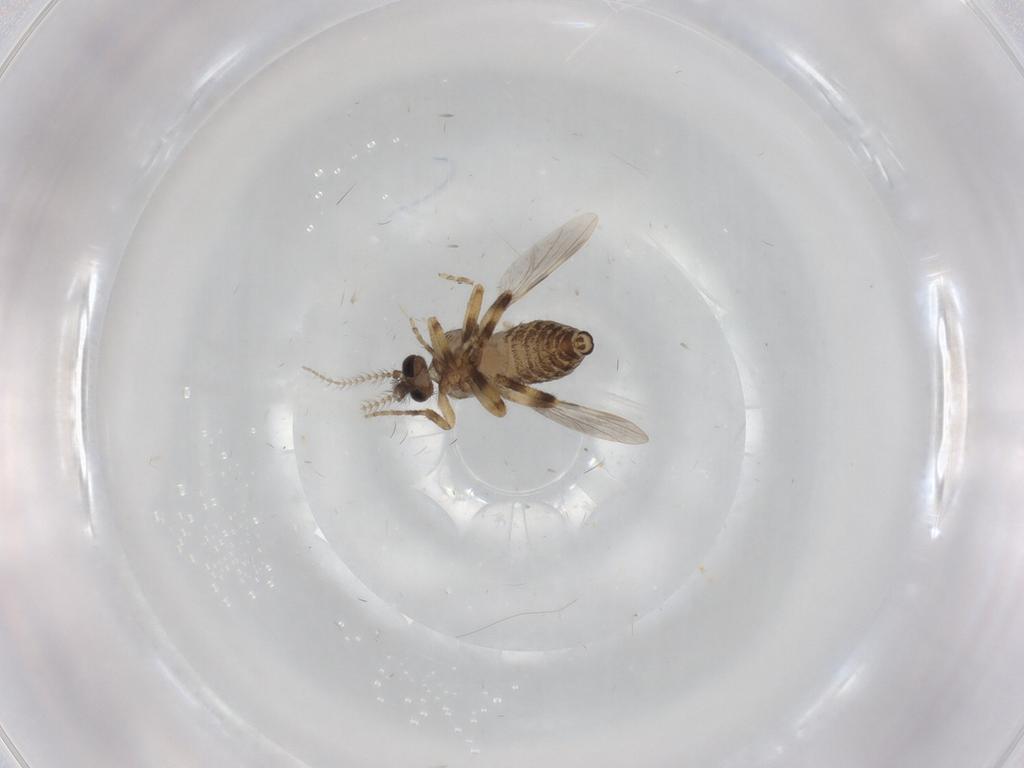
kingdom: Animalia
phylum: Arthropoda
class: Insecta
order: Diptera
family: Ceratopogonidae
